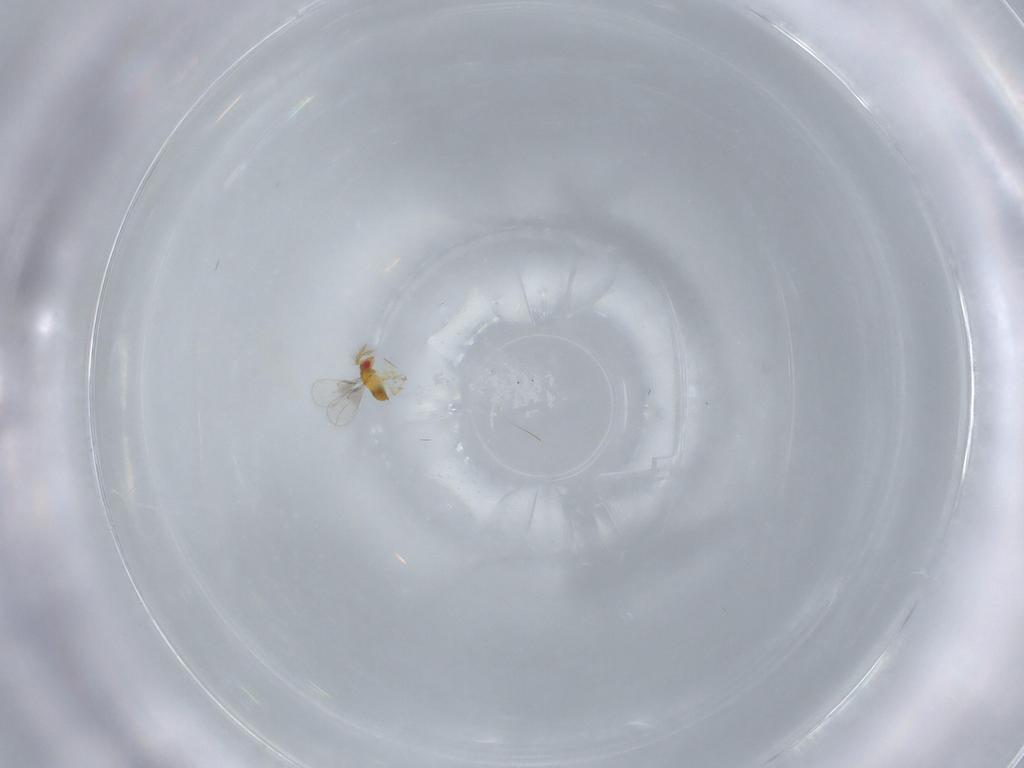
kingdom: Animalia
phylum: Arthropoda
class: Insecta
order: Hymenoptera
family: Trichogrammatidae
